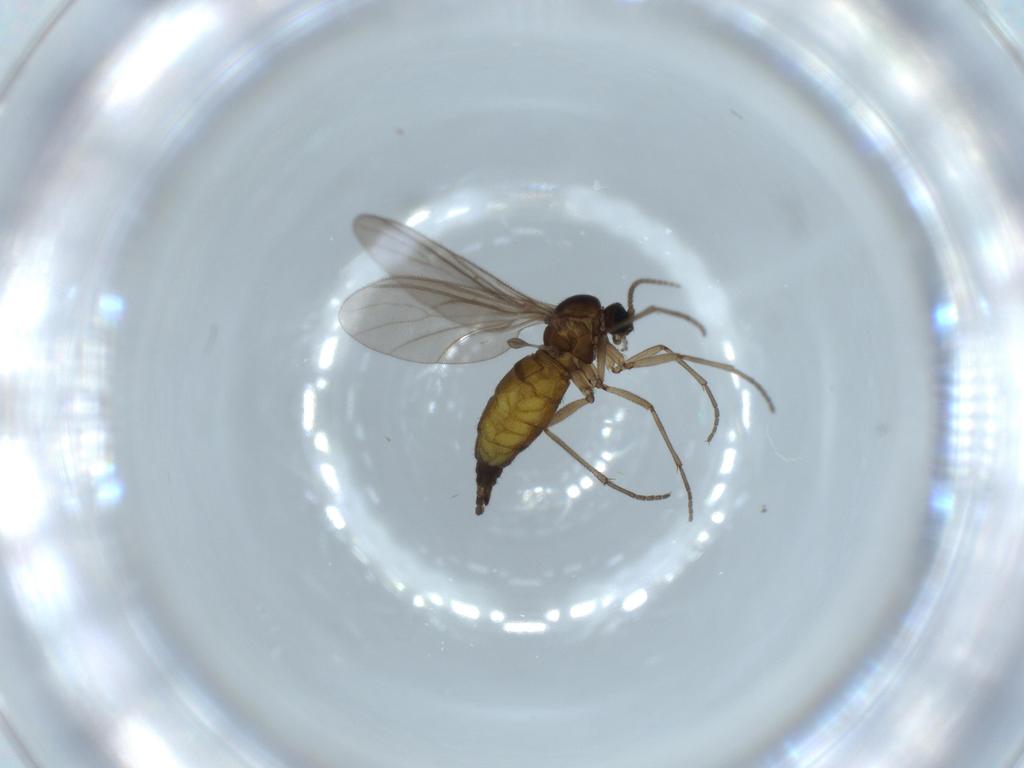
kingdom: Animalia
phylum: Arthropoda
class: Insecta
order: Diptera
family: Sciaridae
